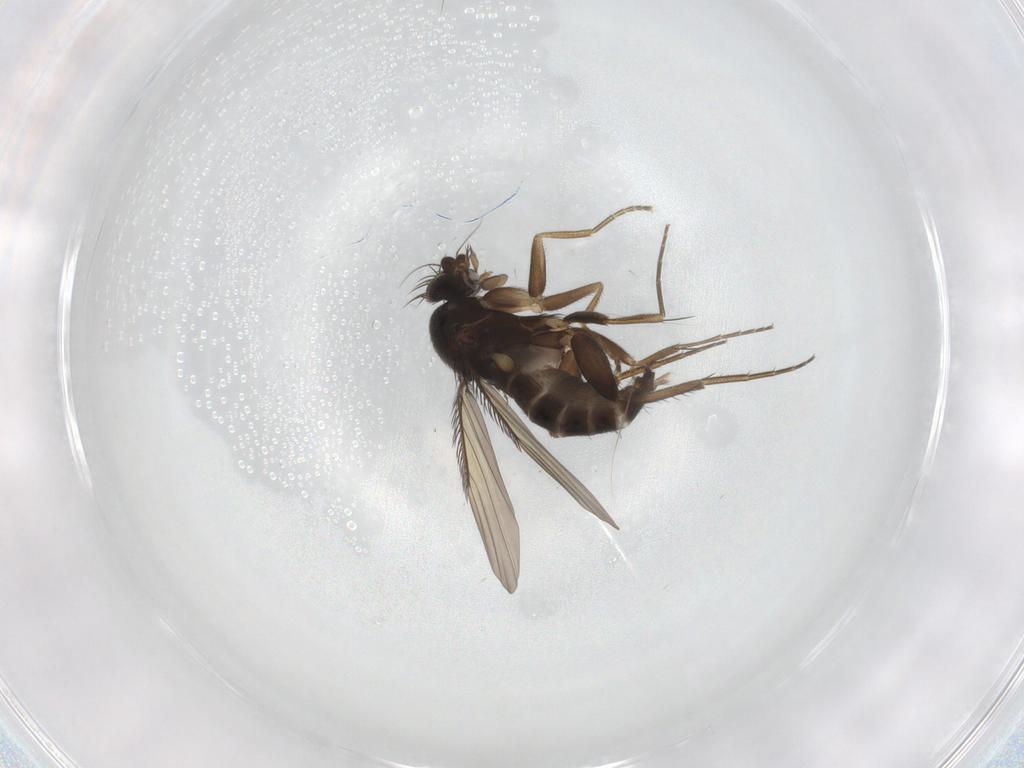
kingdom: Animalia
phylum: Arthropoda
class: Insecta
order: Diptera
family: Phoridae
